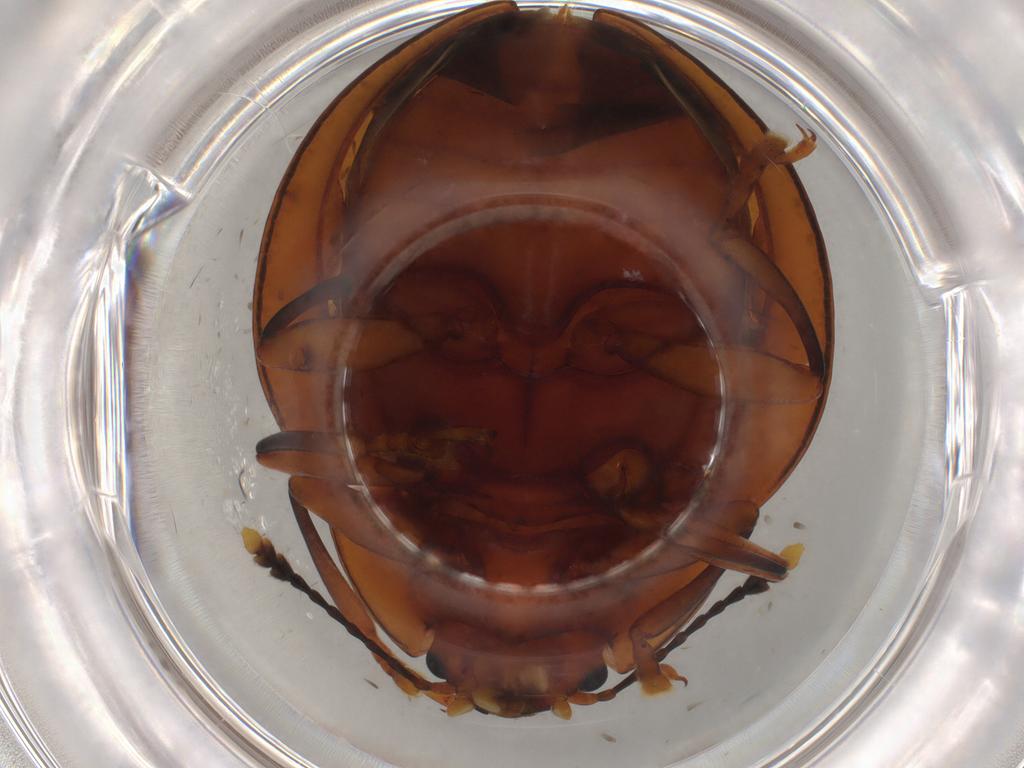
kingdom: Animalia
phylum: Arthropoda
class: Insecta
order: Coleoptera
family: Erotylidae
